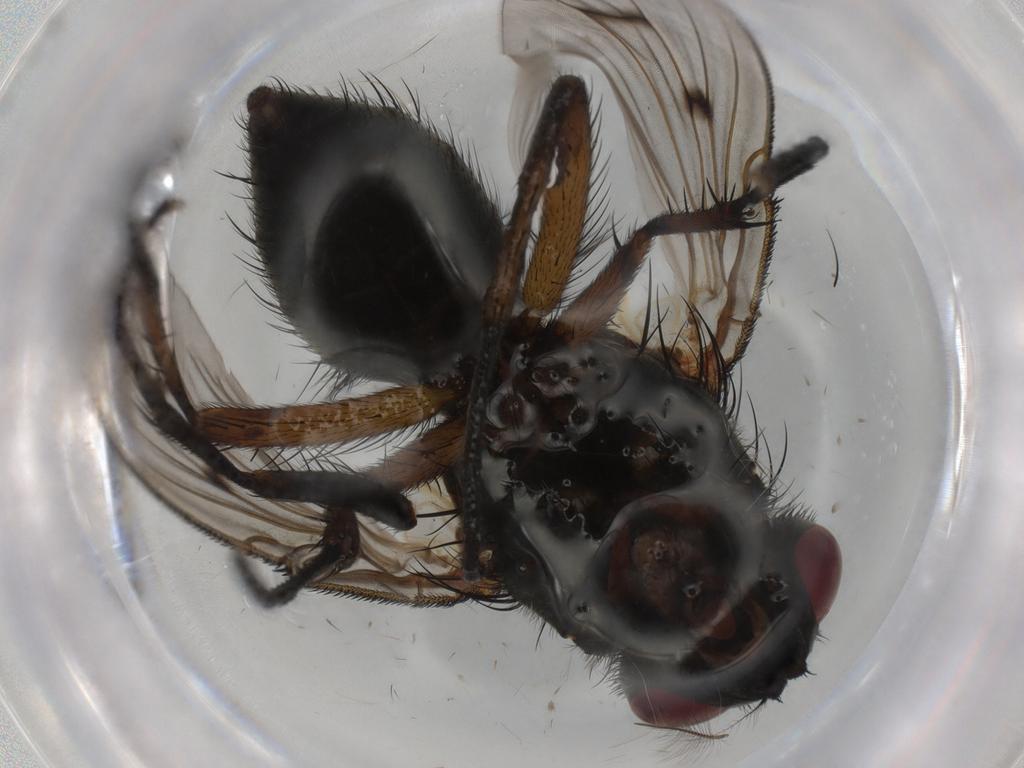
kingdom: Animalia
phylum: Arthropoda
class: Insecta
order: Diptera
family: Muscidae
